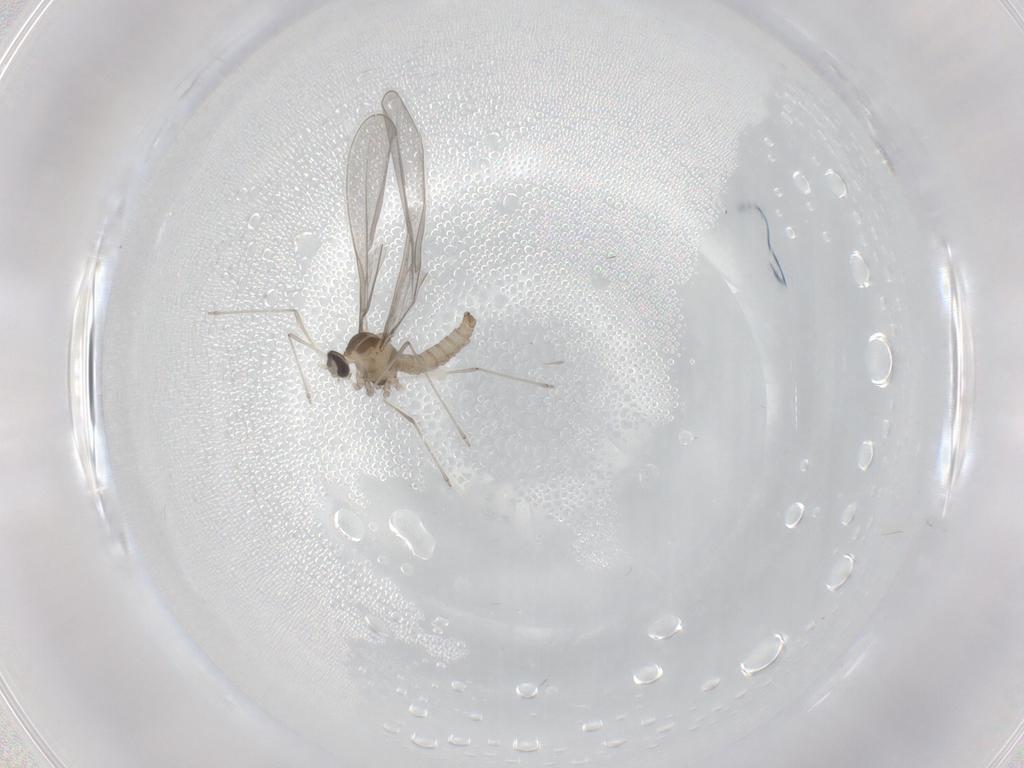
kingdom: Animalia
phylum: Arthropoda
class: Insecta
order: Diptera
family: Cecidomyiidae
